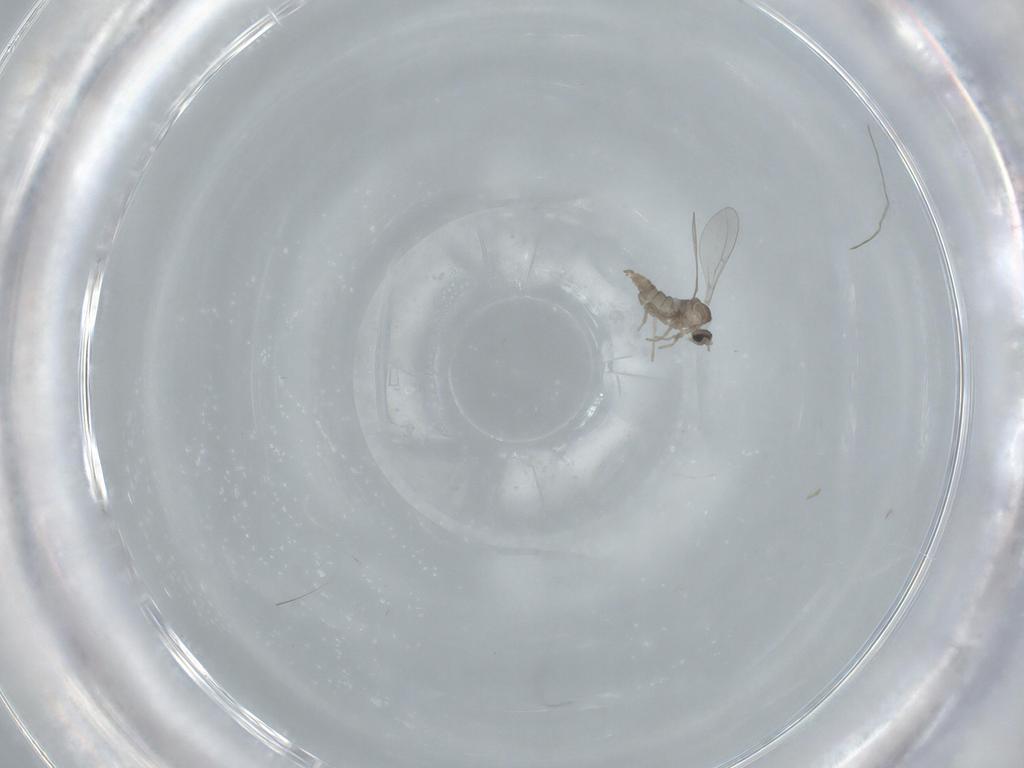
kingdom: Animalia
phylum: Arthropoda
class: Insecta
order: Diptera
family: Cecidomyiidae
